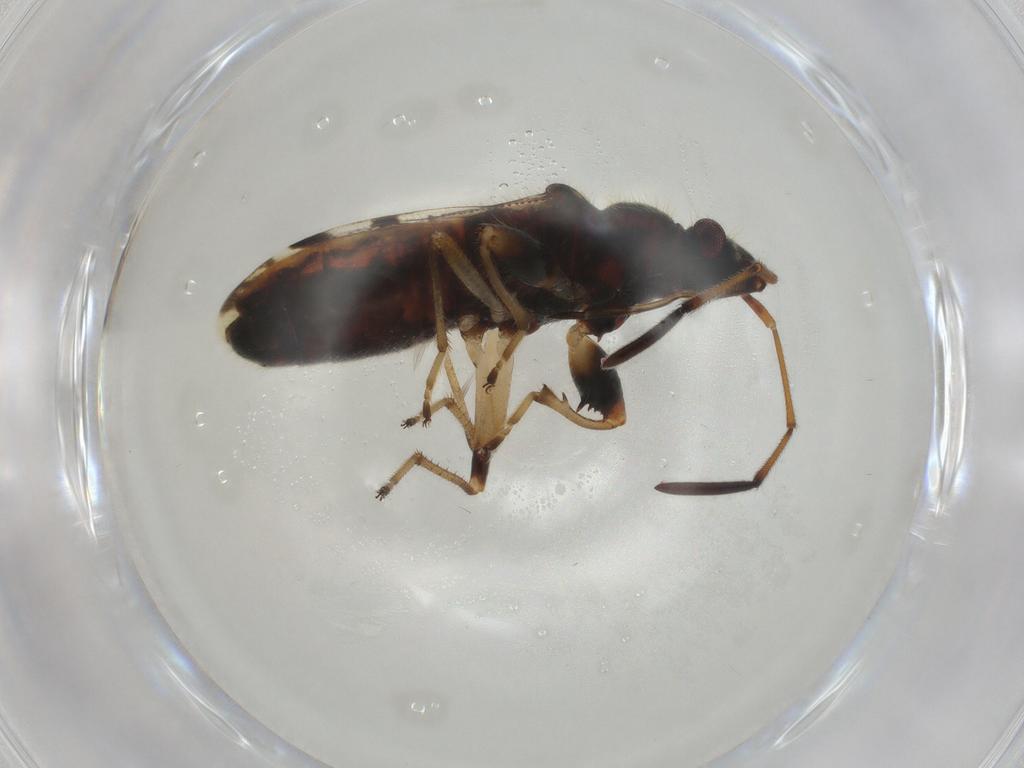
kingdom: Animalia
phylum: Arthropoda
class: Insecta
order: Hemiptera
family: Rhyparochromidae
